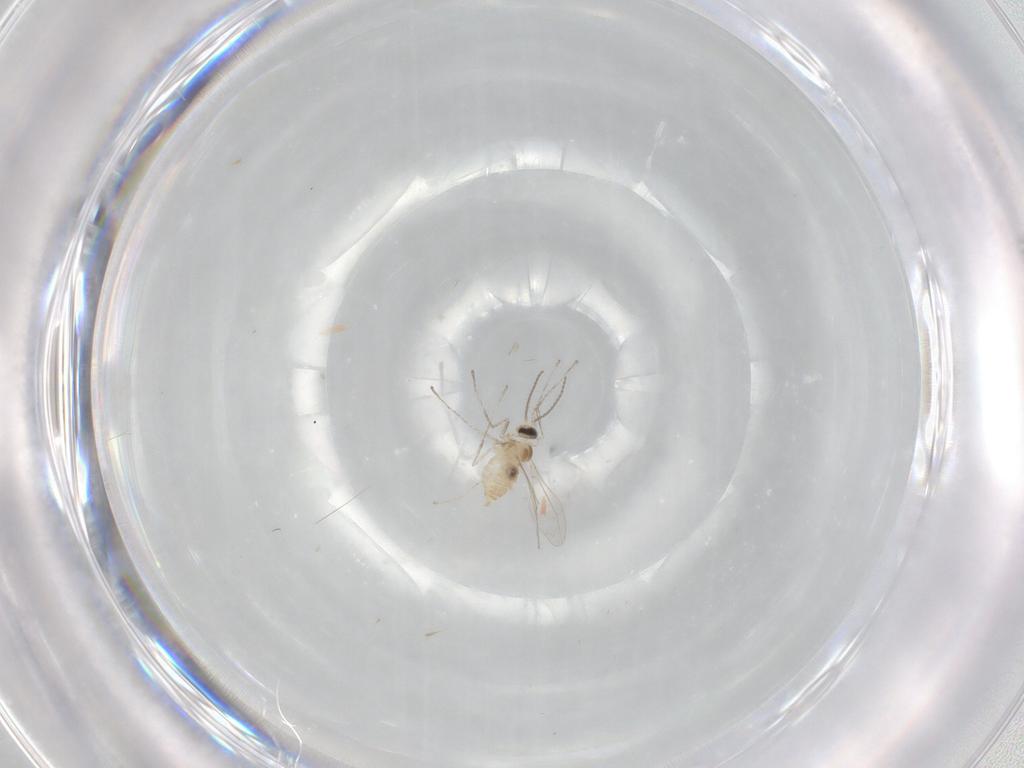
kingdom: Animalia
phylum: Arthropoda
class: Insecta
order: Diptera
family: Cecidomyiidae
